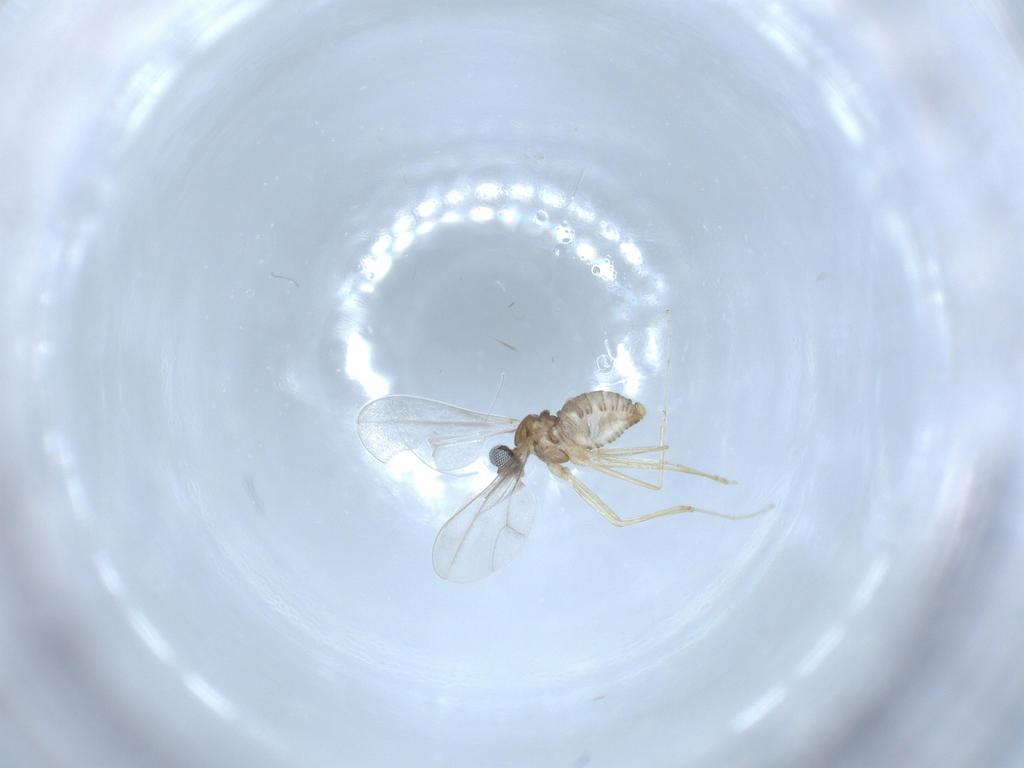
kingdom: Animalia
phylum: Arthropoda
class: Insecta
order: Diptera
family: Cecidomyiidae
